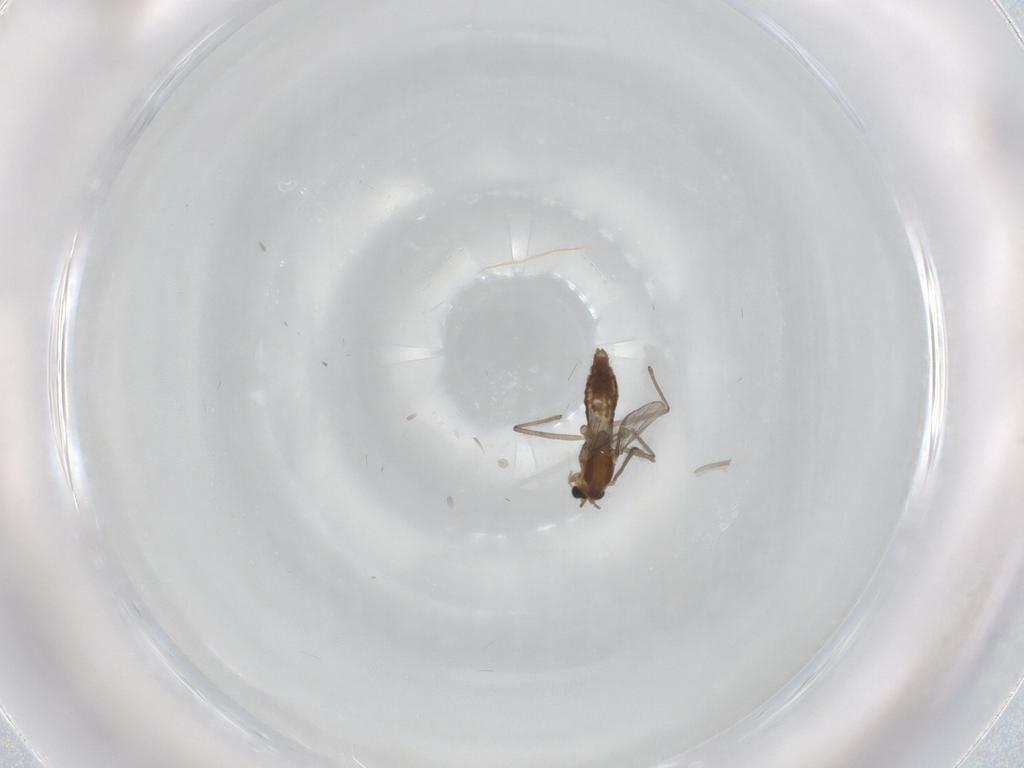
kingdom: Animalia
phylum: Arthropoda
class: Insecta
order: Diptera
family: Chironomidae
